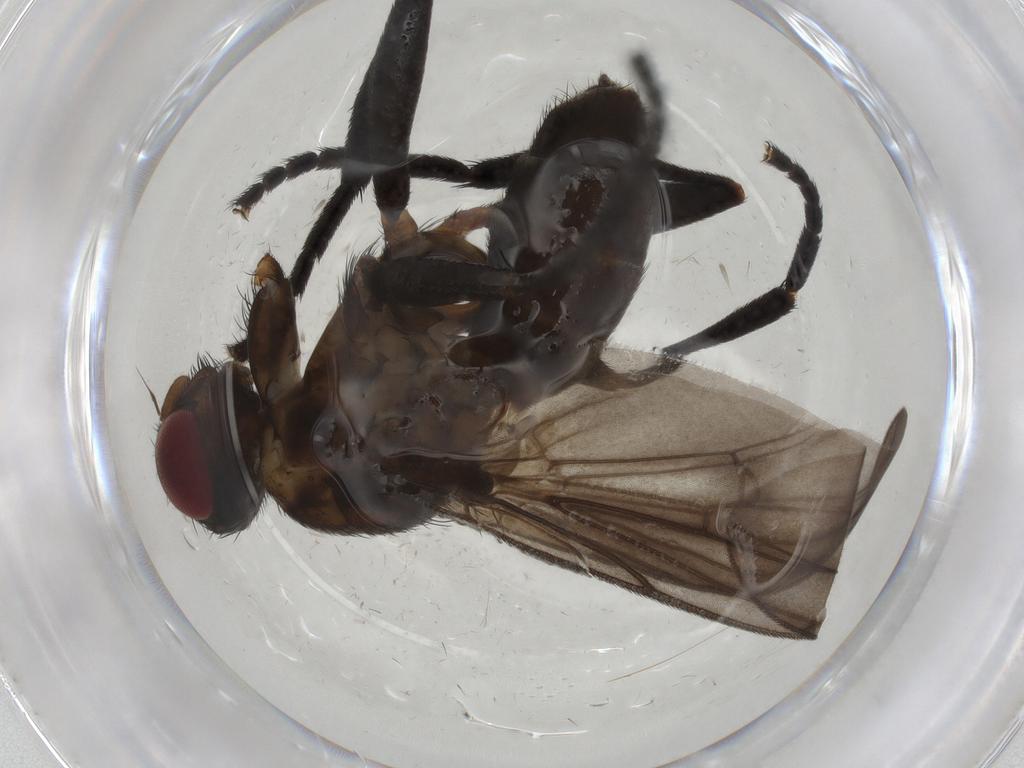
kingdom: Animalia
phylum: Arthropoda
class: Insecta
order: Diptera
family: Calliphoridae
